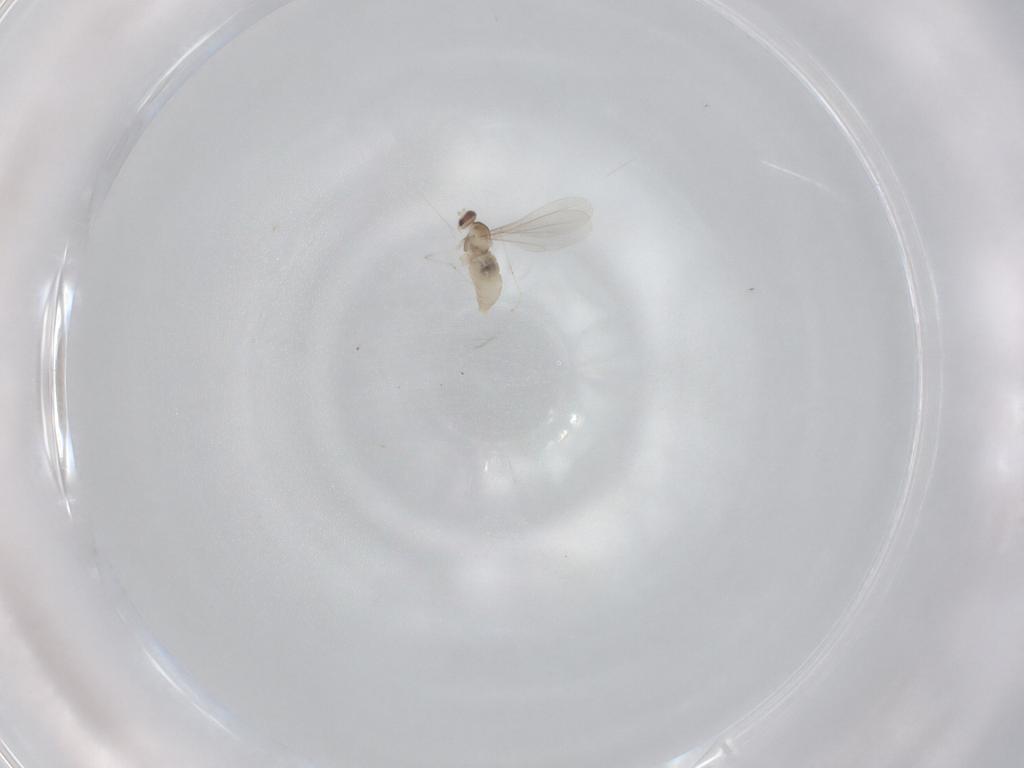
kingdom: Animalia
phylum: Arthropoda
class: Insecta
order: Diptera
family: Cecidomyiidae
